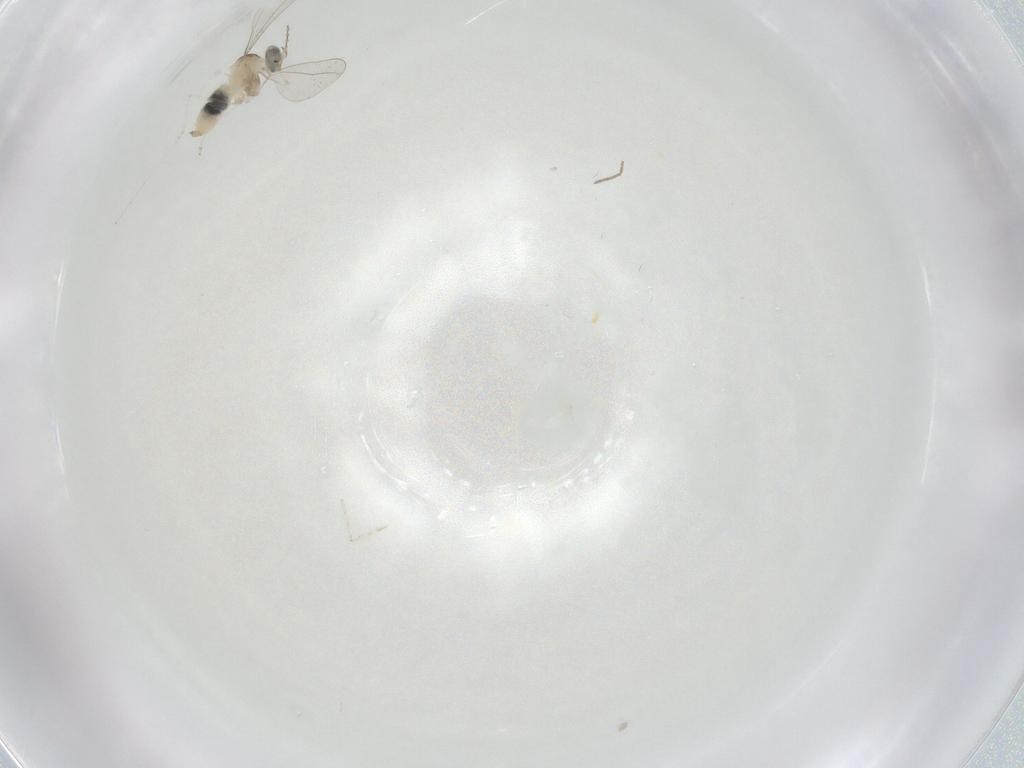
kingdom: Animalia
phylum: Arthropoda
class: Insecta
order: Diptera
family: Cecidomyiidae
